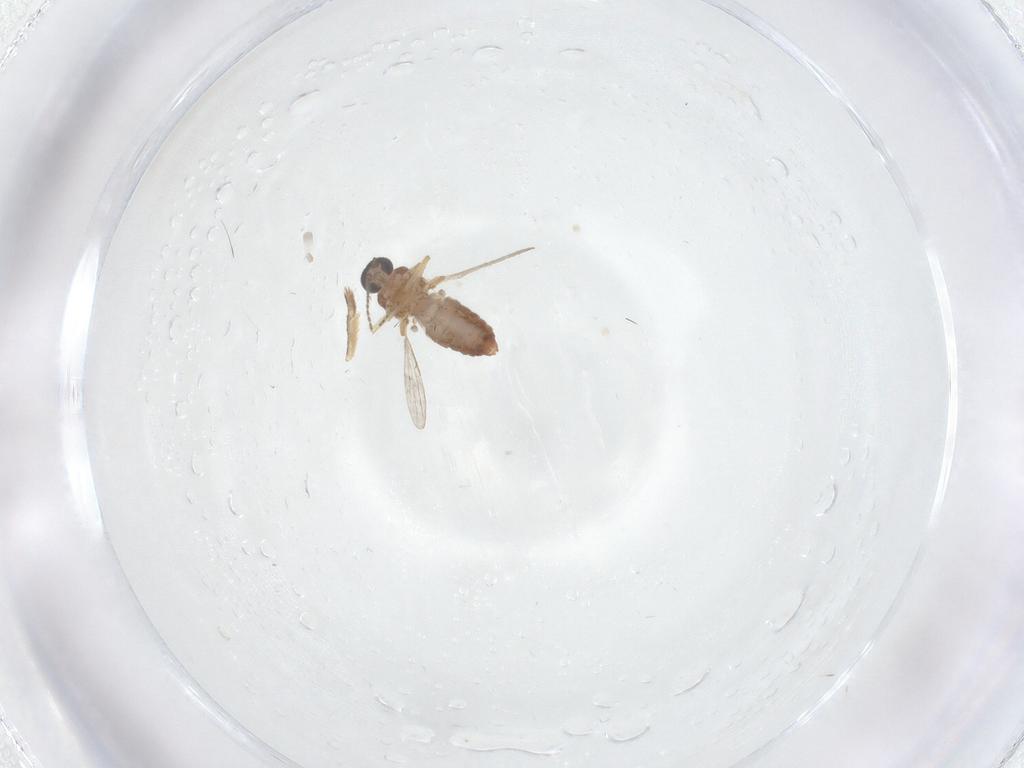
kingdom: Animalia
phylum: Arthropoda
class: Insecta
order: Diptera
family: Ceratopogonidae
